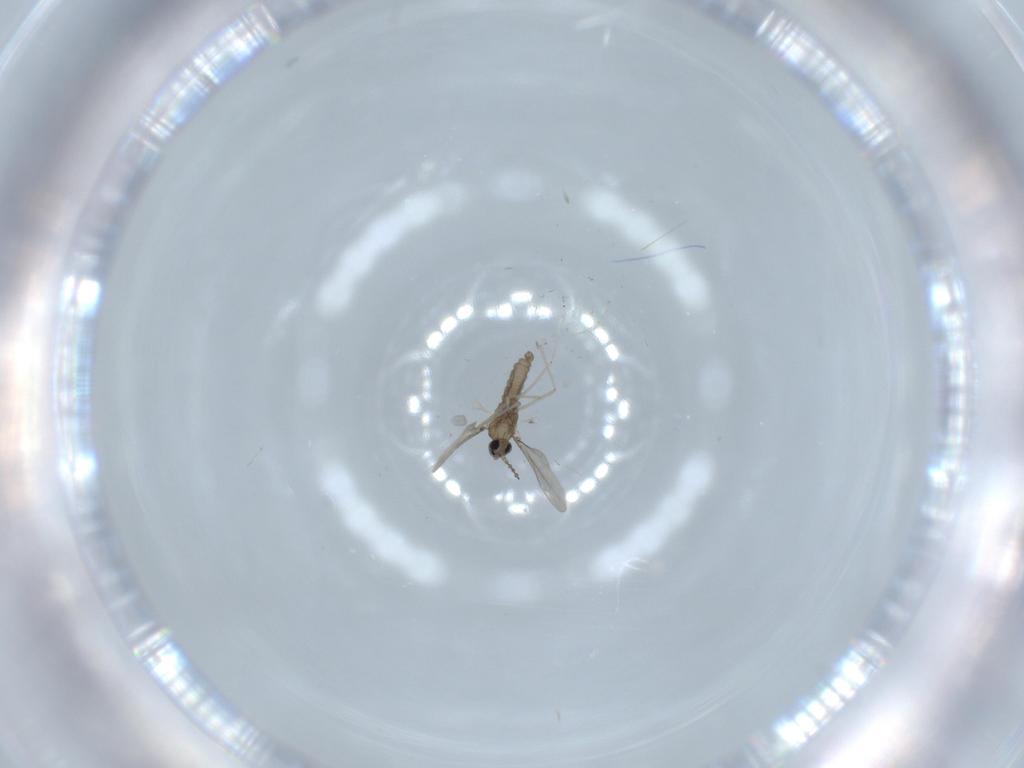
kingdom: Animalia
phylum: Arthropoda
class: Insecta
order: Diptera
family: Cecidomyiidae
